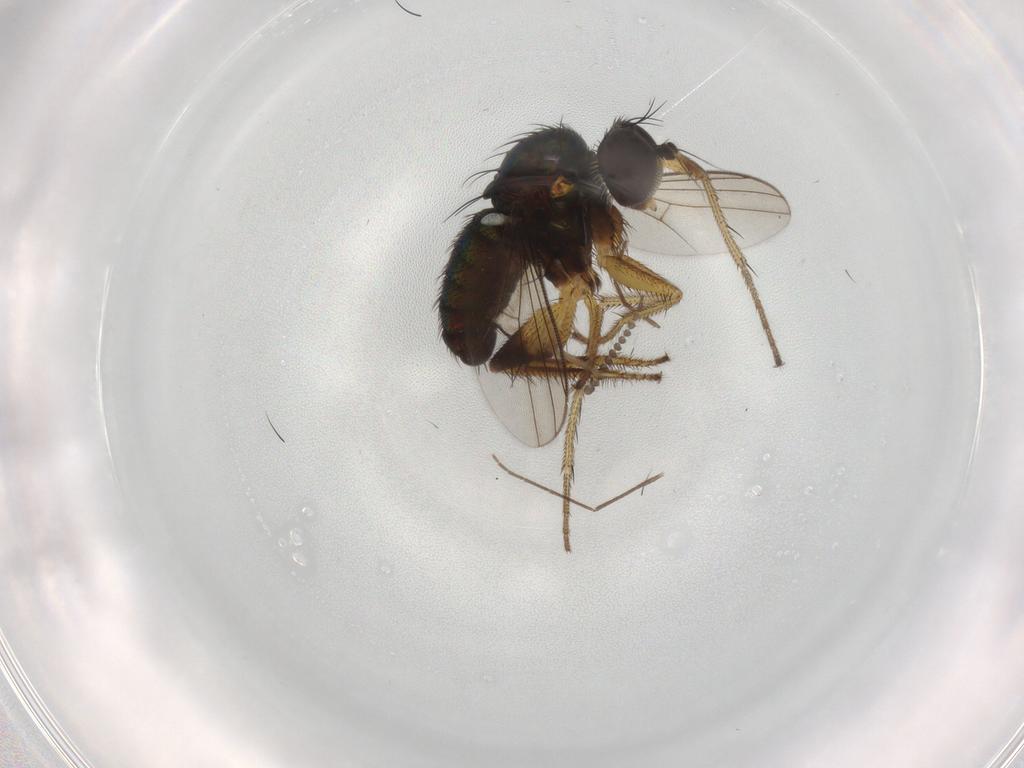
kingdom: Animalia
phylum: Arthropoda
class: Insecta
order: Diptera
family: Dolichopodidae
